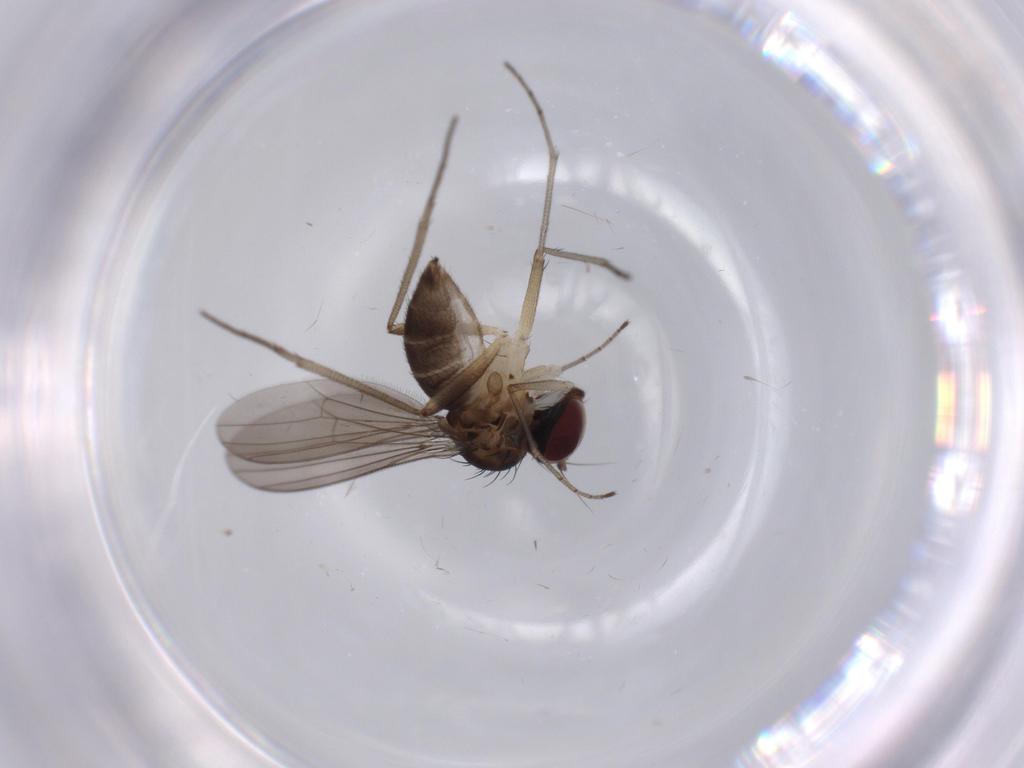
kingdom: Animalia
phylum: Arthropoda
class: Insecta
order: Diptera
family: Dolichopodidae
